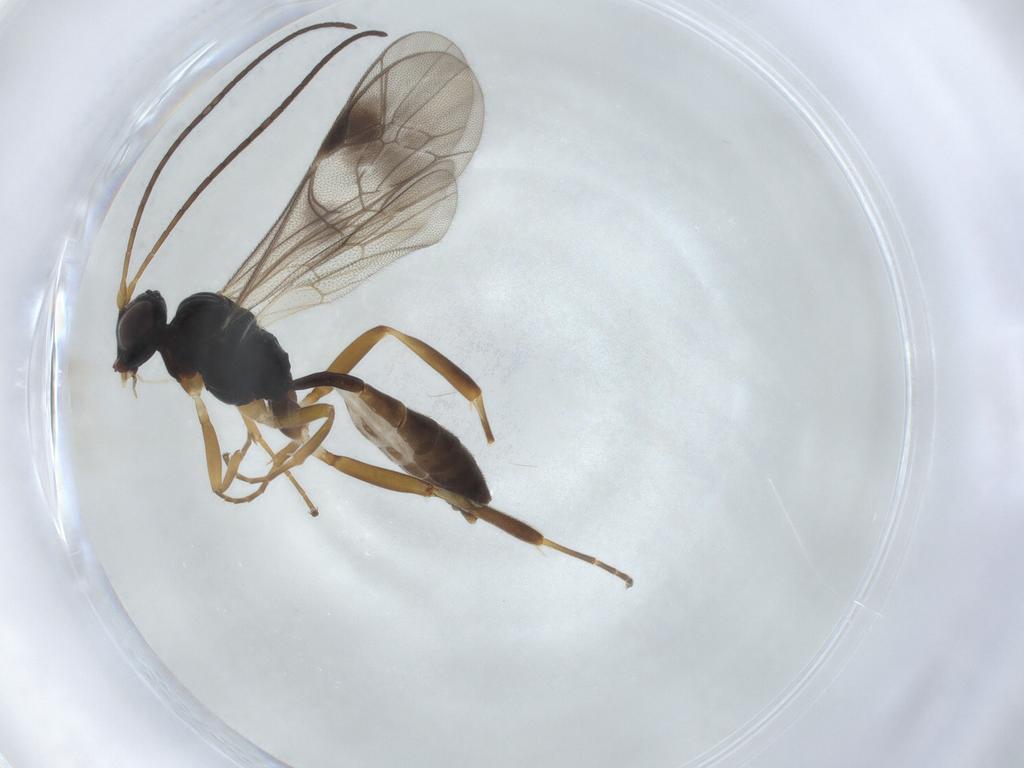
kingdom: Animalia
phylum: Arthropoda
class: Insecta
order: Hymenoptera
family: Ichneumonidae
